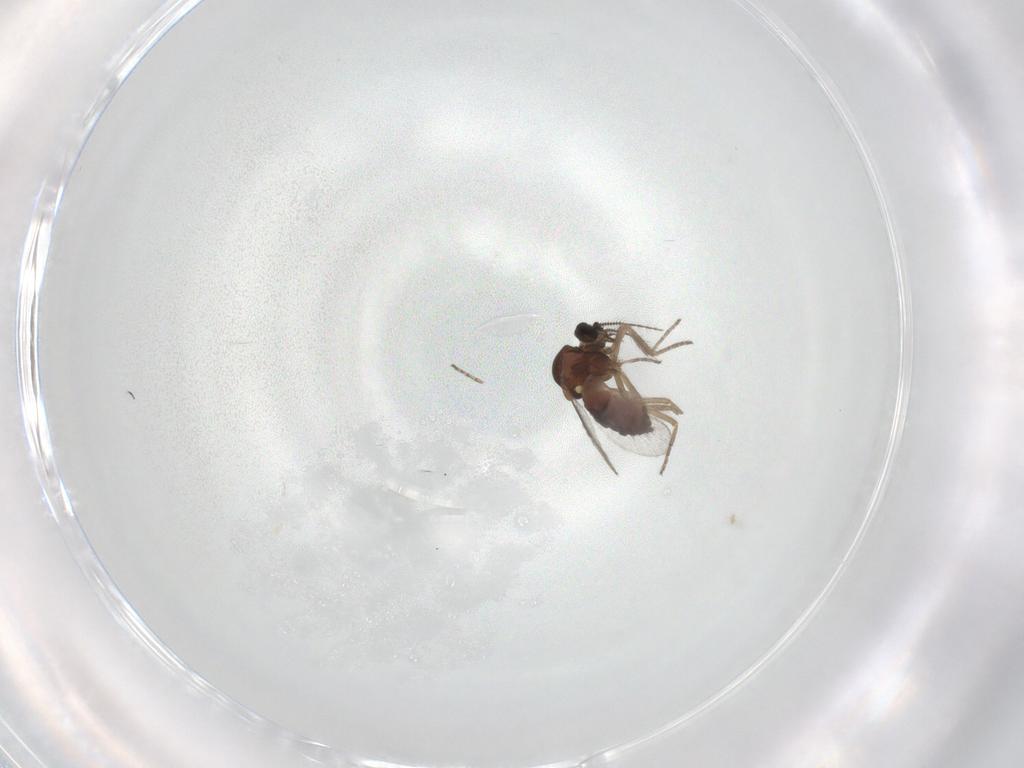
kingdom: Animalia
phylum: Arthropoda
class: Insecta
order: Diptera
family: Ceratopogonidae
